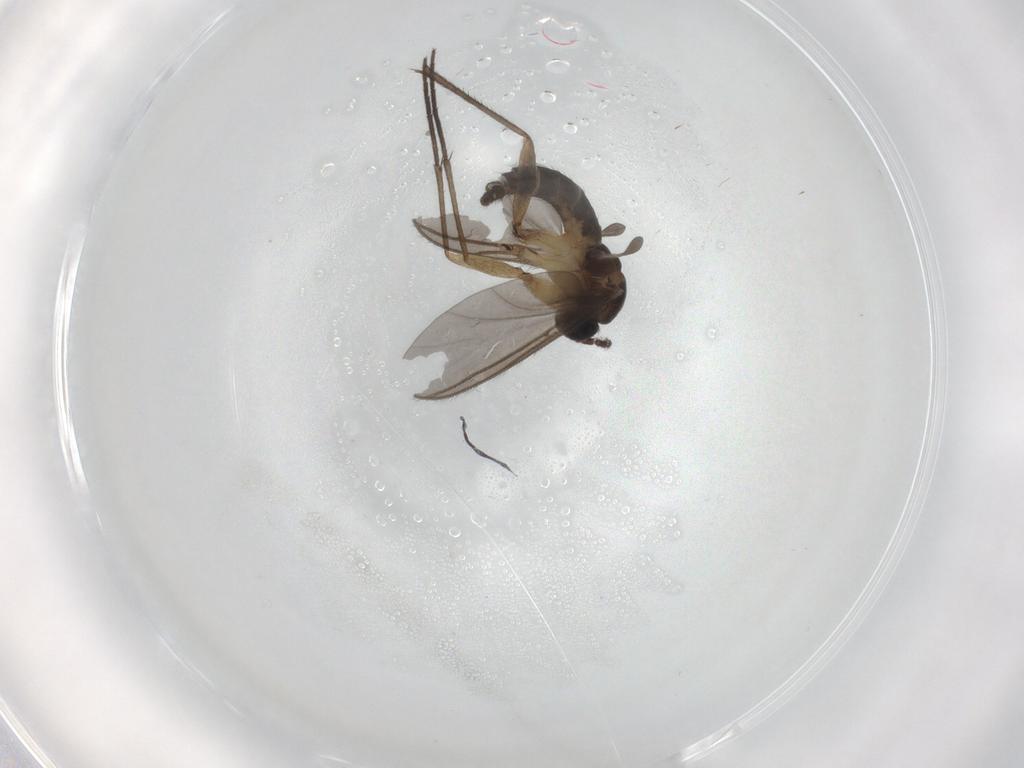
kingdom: Animalia
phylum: Arthropoda
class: Insecta
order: Diptera
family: Sciaridae
